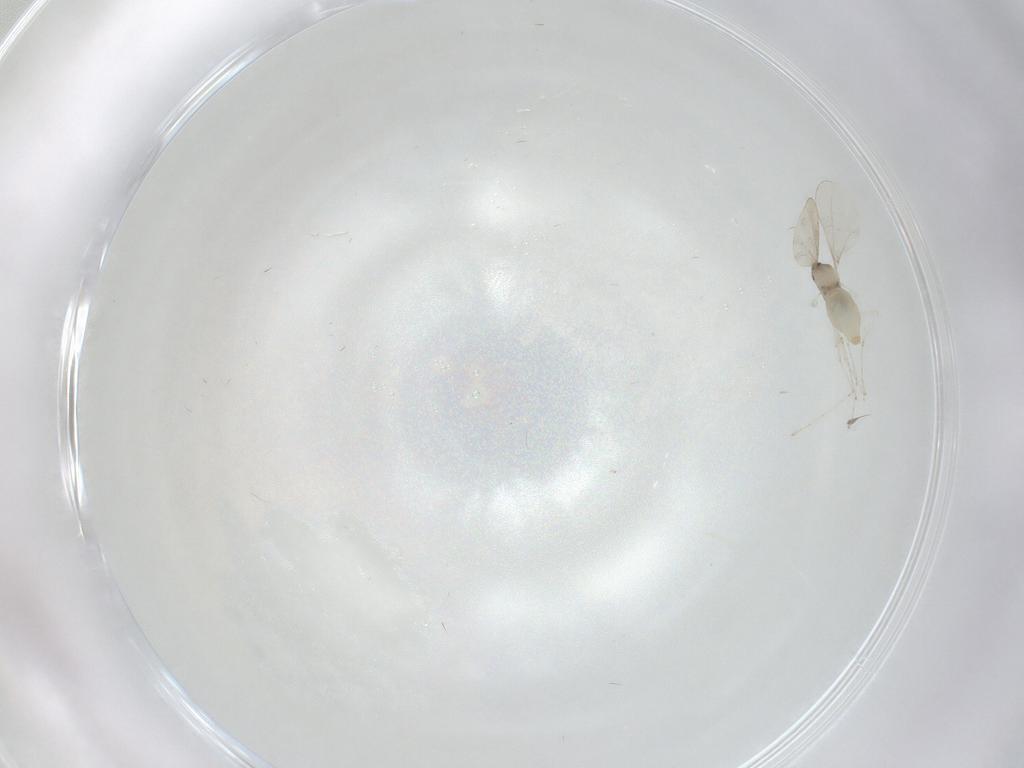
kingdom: Animalia
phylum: Arthropoda
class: Insecta
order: Diptera
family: Cecidomyiidae
